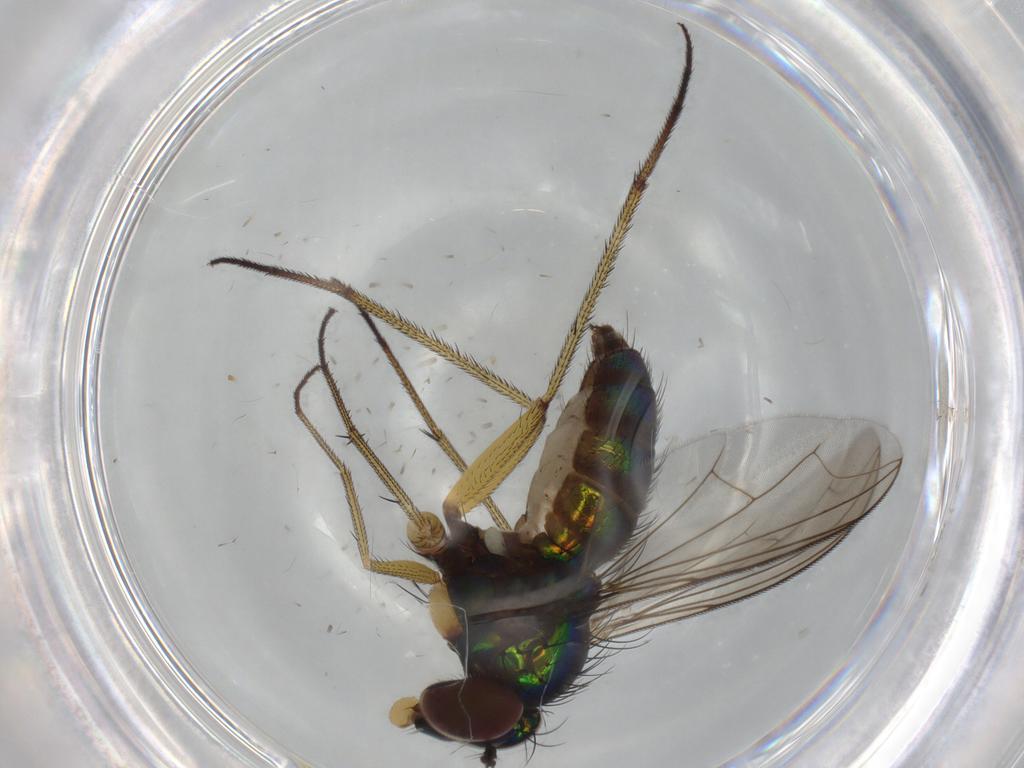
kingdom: Animalia
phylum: Arthropoda
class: Insecta
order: Diptera
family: Dolichopodidae
